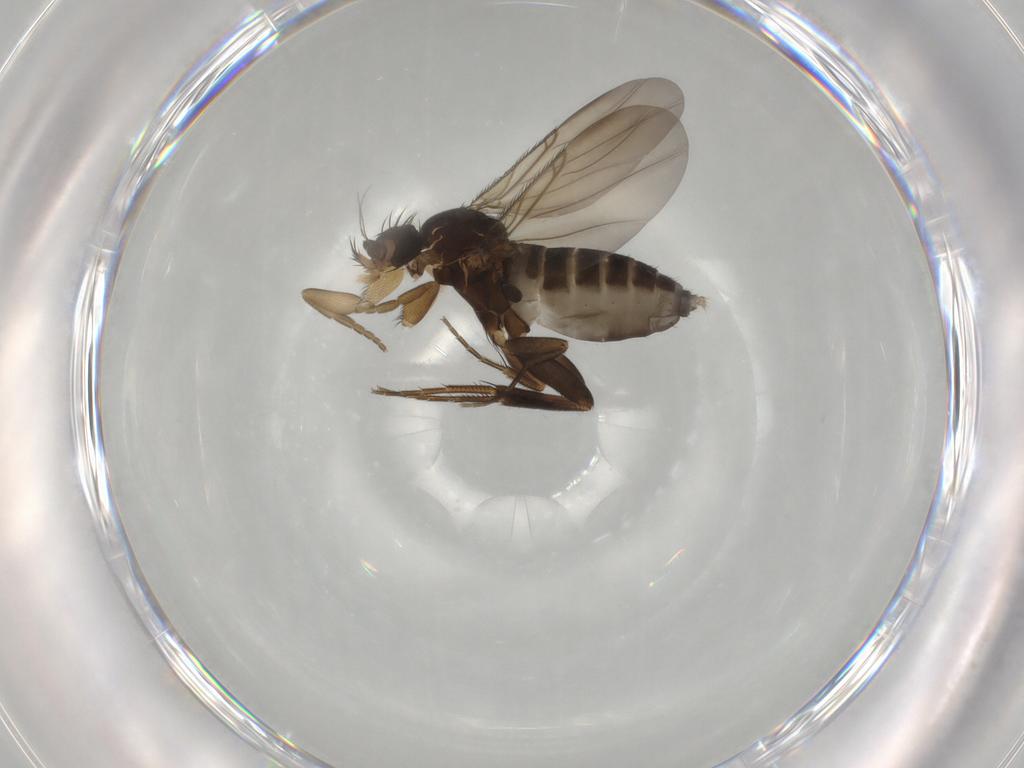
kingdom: Animalia
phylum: Arthropoda
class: Insecta
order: Diptera
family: Phoridae
